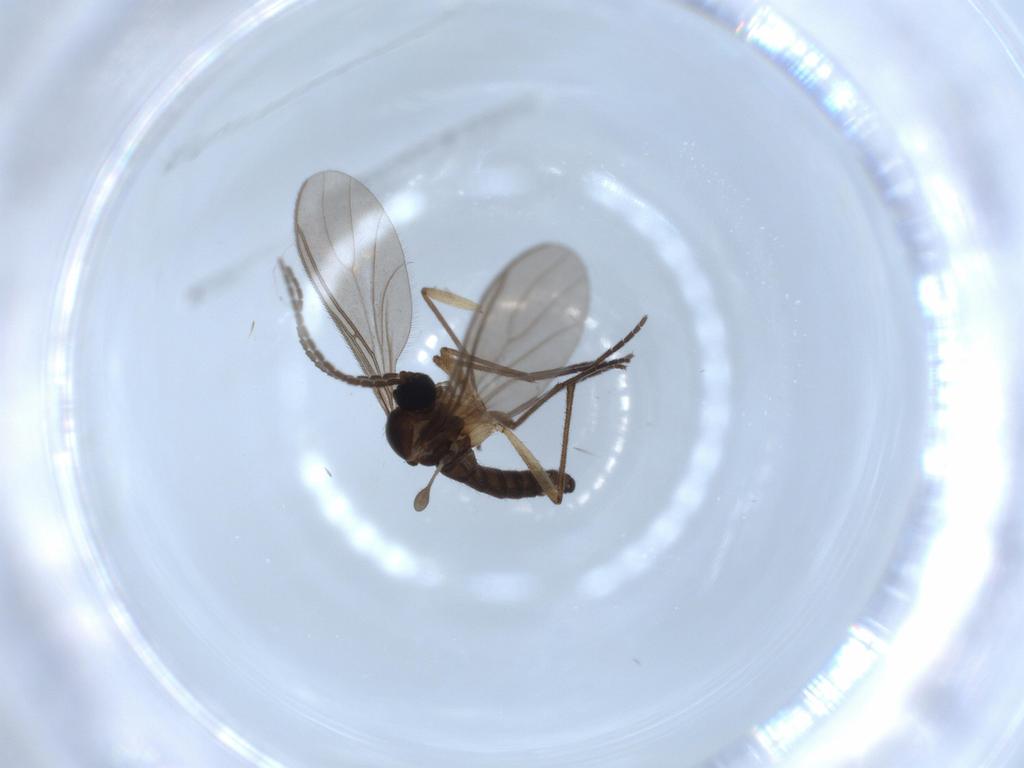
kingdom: Animalia
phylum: Arthropoda
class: Insecta
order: Diptera
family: Sciaridae
